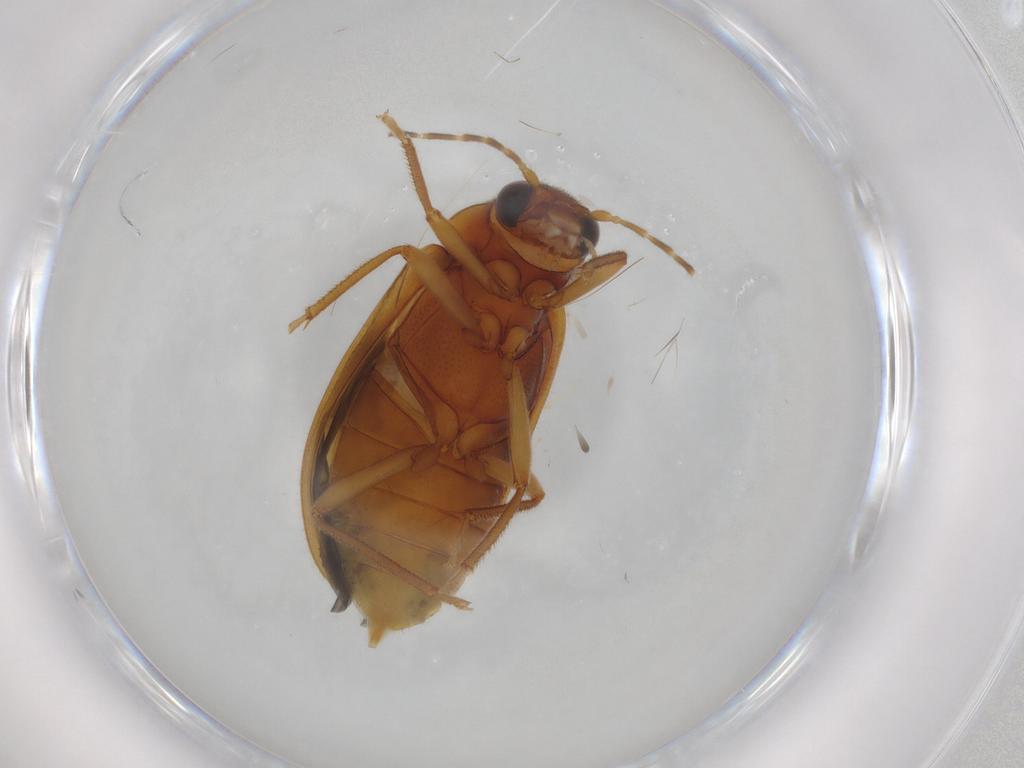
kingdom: Animalia
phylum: Arthropoda
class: Insecta
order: Coleoptera
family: Ptilodactylidae
